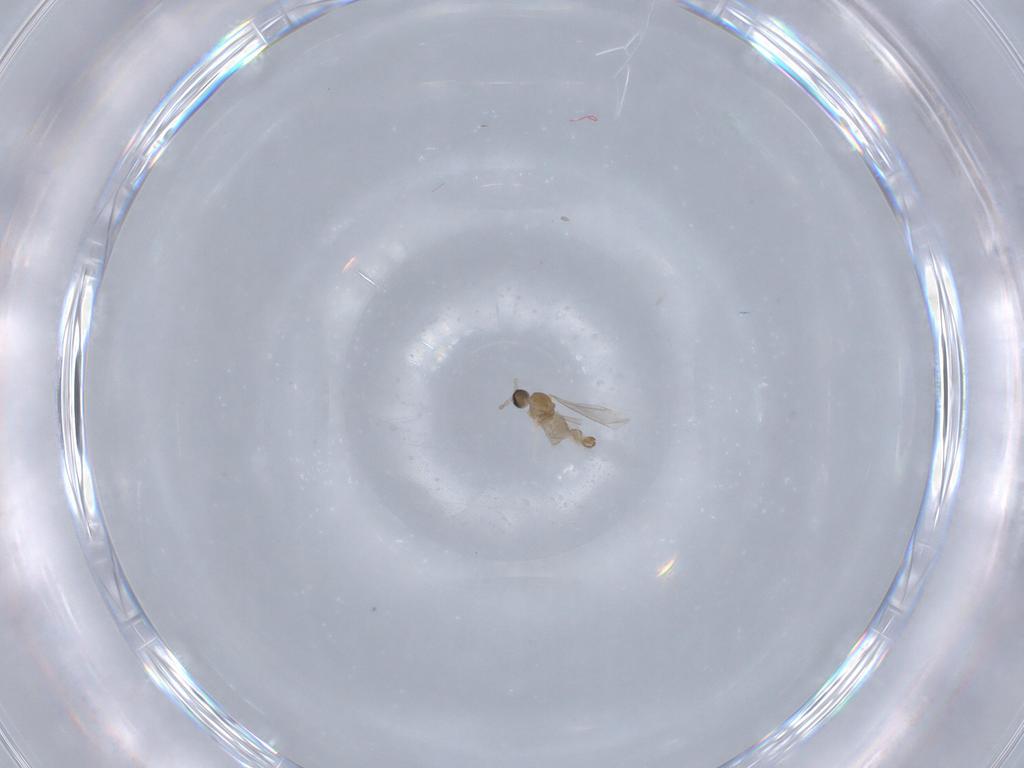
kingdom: Animalia
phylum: Arthropoda
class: Insecta
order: Diptera
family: Cecidomyiidae
